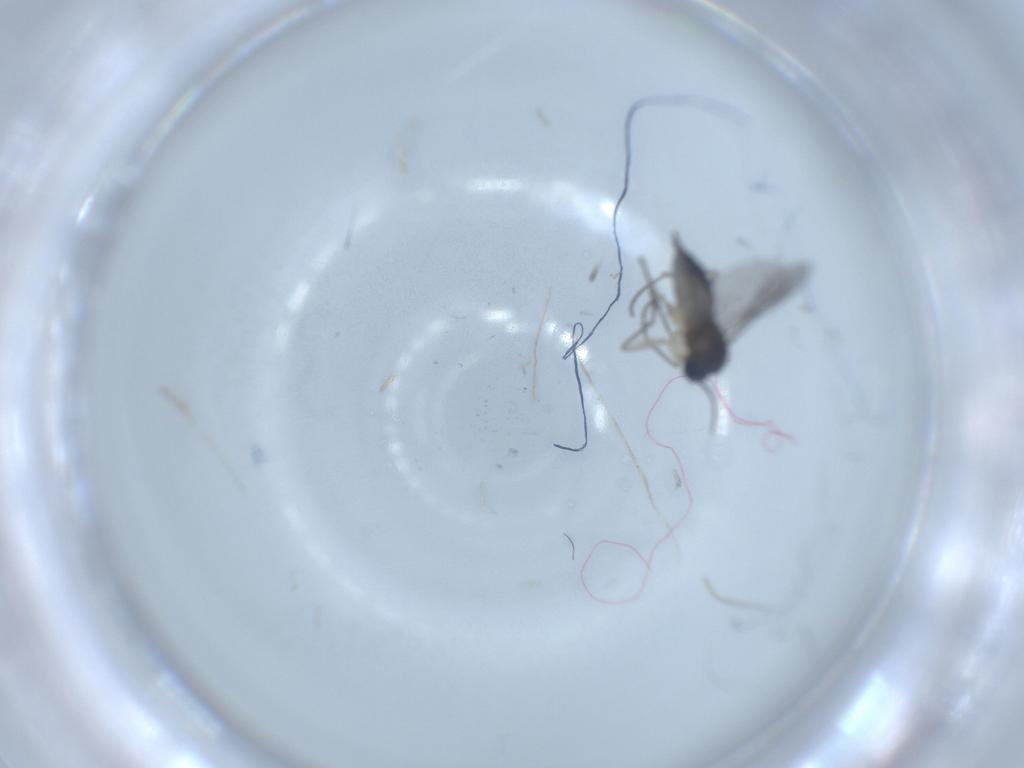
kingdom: Animalia
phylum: Arthropoda
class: Insecta
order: Diptera
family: Sciaridae
